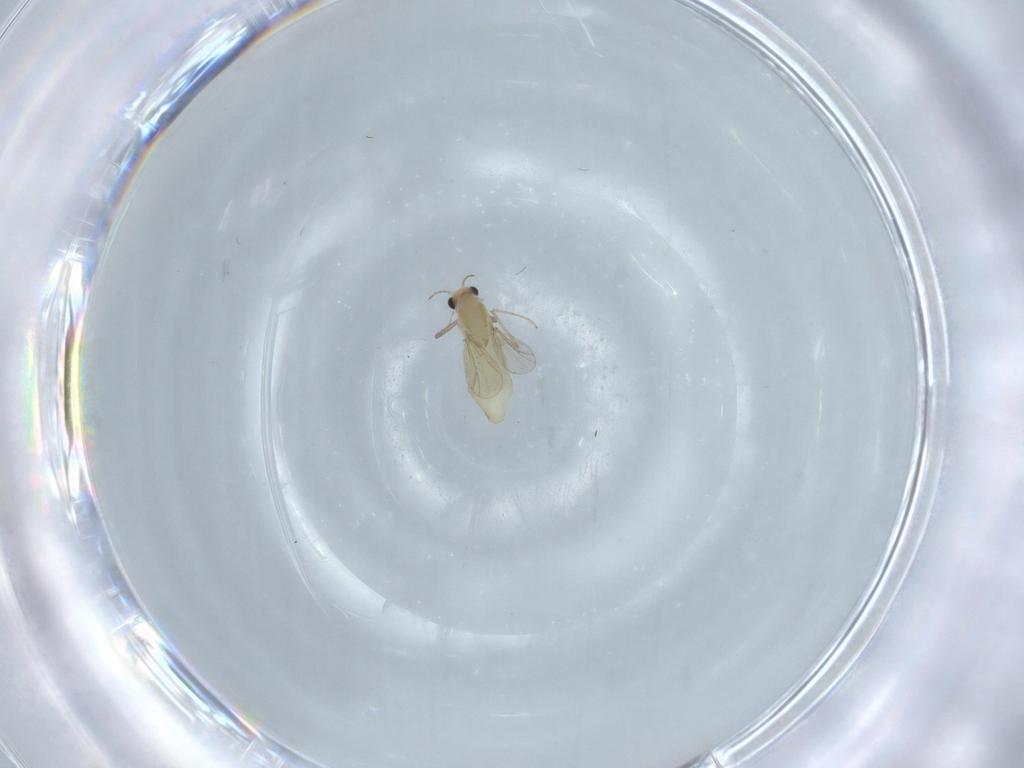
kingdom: Animalia
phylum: Arthropoda
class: Insecta
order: Diptera
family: Chironomidae
